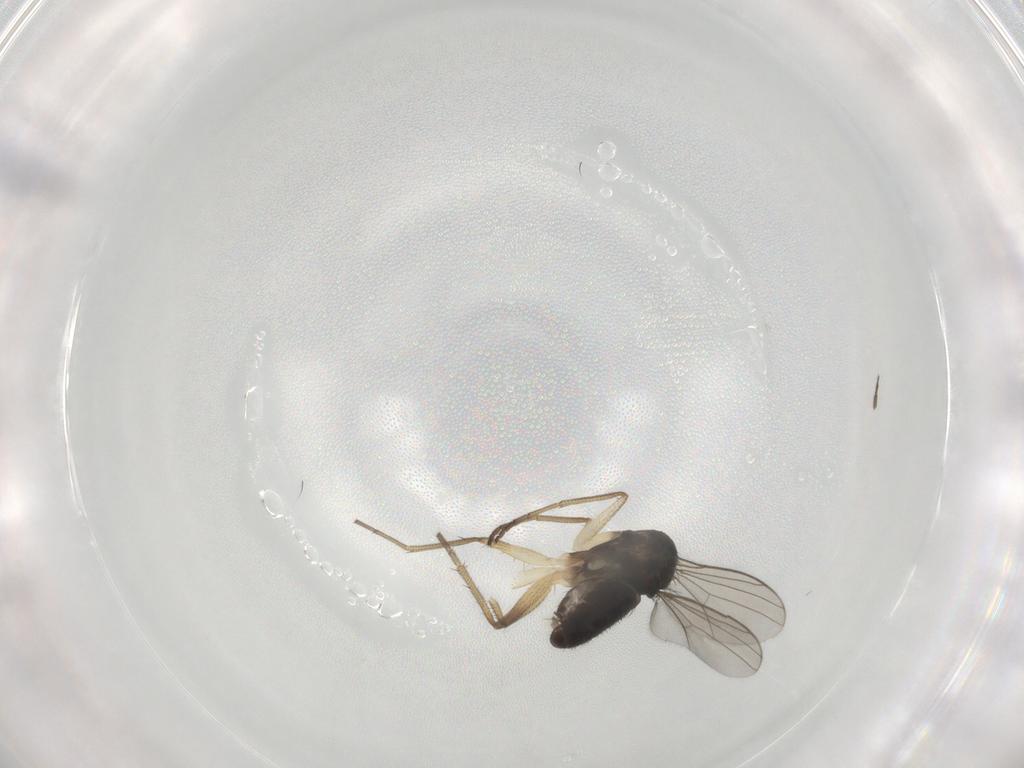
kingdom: Animalia
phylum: Arthropoda
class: Insecta
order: Diptera
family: Dolichopodidae
